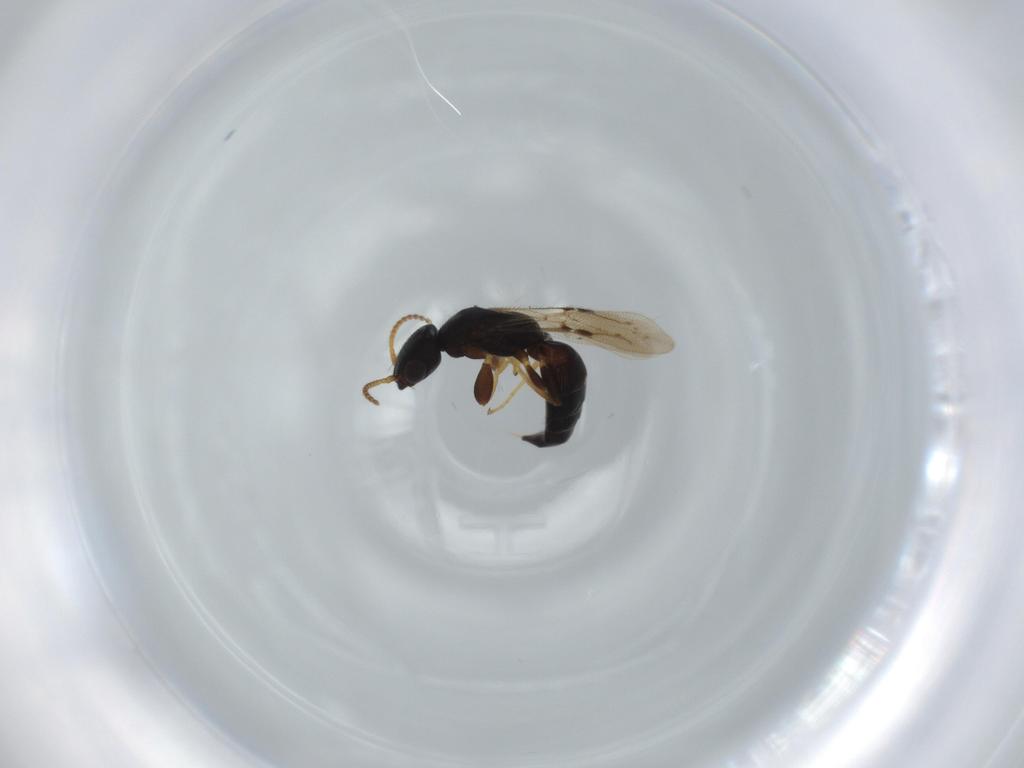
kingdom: Animalia
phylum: Arthropoda
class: Insecta
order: Hymenoptera
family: Bethylidae
